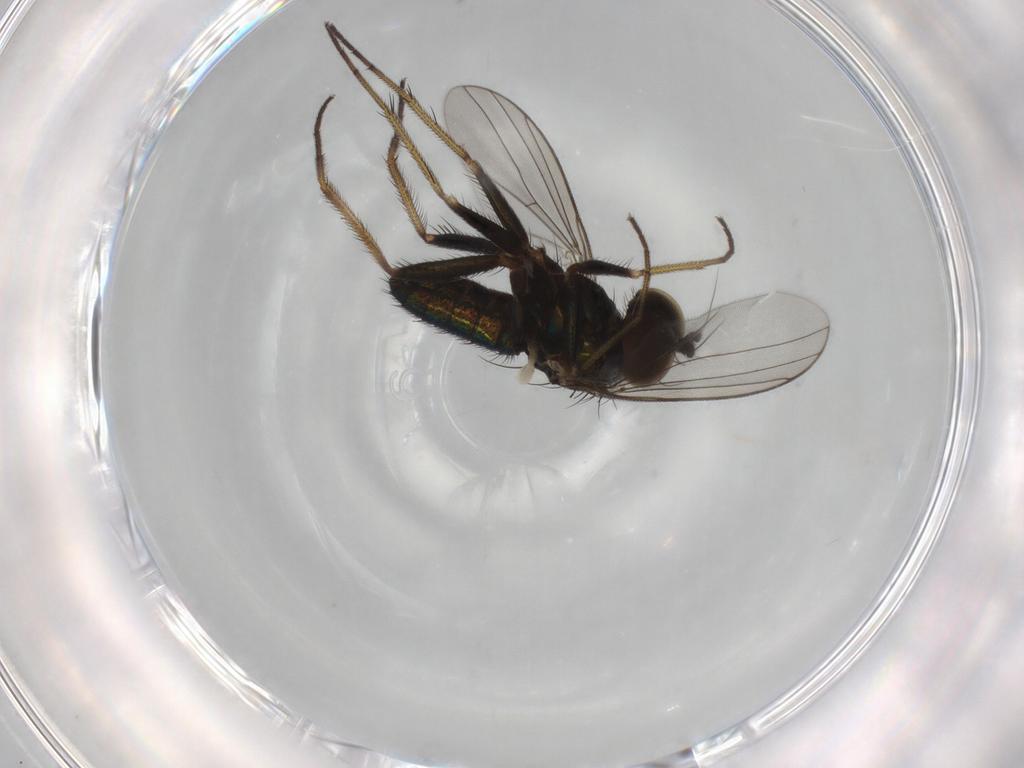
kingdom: Animalia
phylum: Arthropoda
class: Insecta
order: Diptera
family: Dolichopodidae
